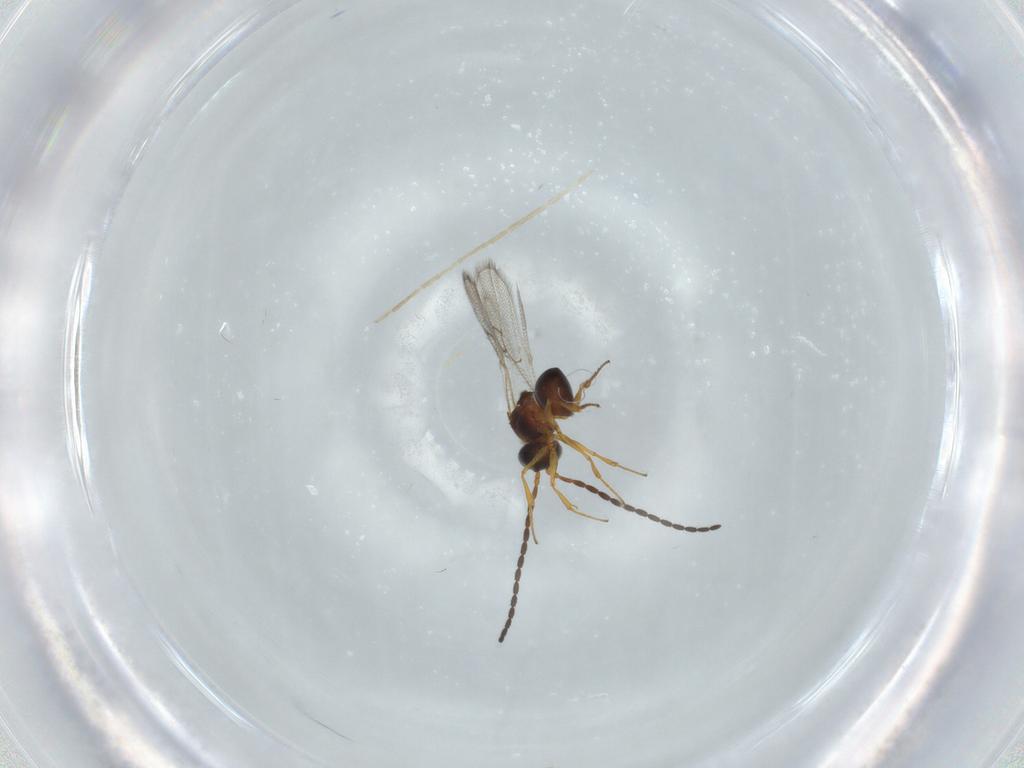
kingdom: Animalia
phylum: Arthropoda
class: Insecta
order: Hymenoptera
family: Figitidae
